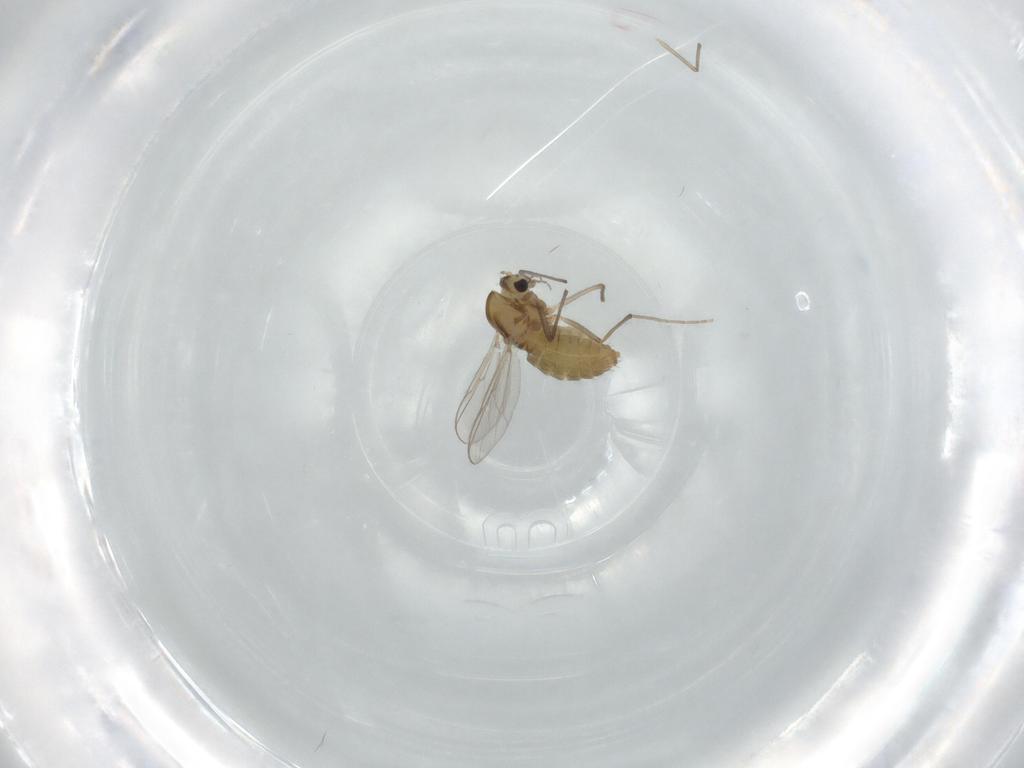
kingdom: Animalia
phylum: Arthropoda
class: Insecta
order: Diptera
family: Chironomidae
